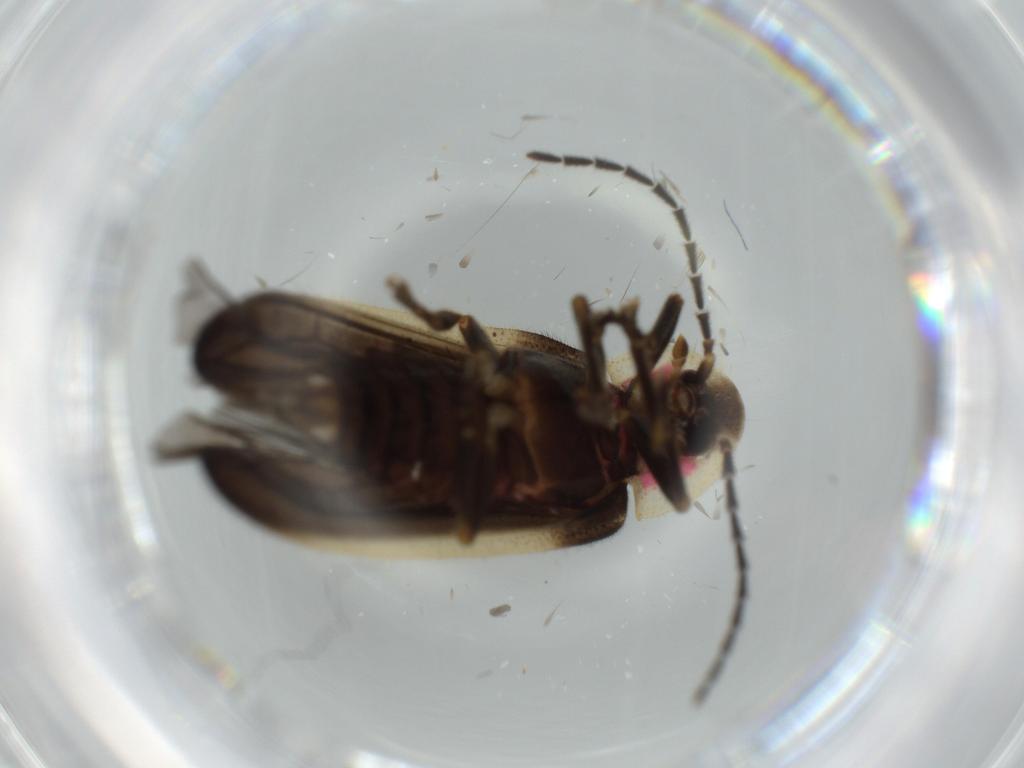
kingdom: Animalia
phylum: Arthropoda
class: Insecta
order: Coleoptera
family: Lampyridae
